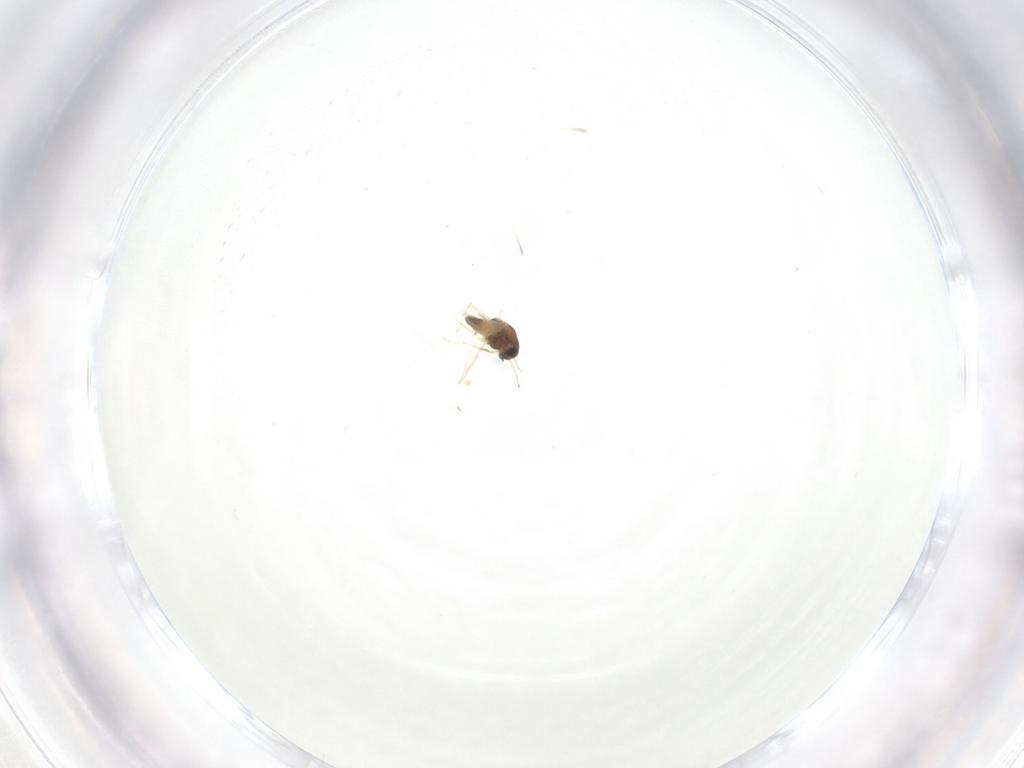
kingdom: Animalia
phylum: Arthropoda
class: Insecta
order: Diptera
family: Chironomidae
